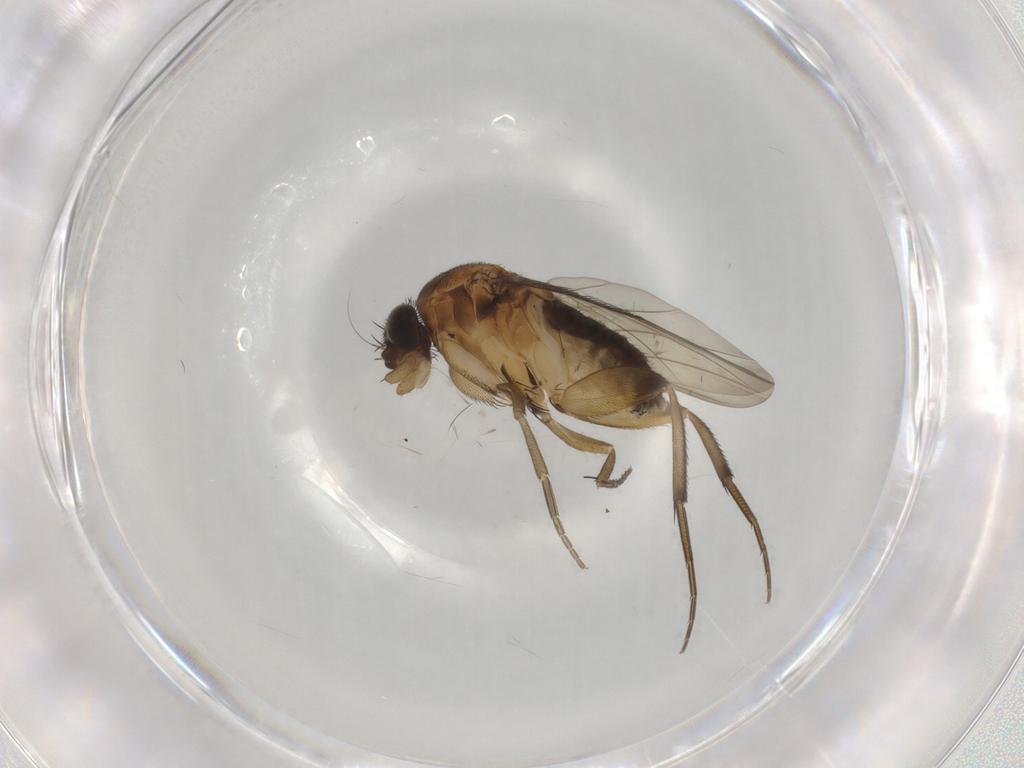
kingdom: Animalia
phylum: Arthropoda
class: Insecta
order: Diptera
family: Phoridae
